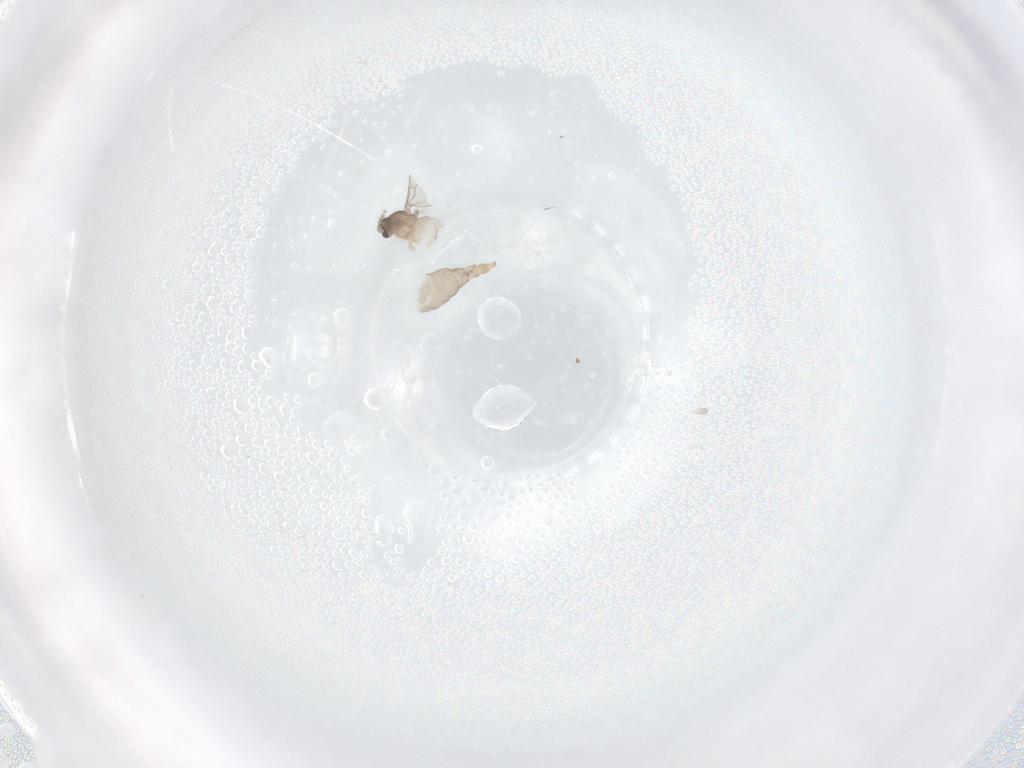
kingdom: Animalia
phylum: Arthropoda
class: Insecta
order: Diptera
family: Cecidomyiidae
